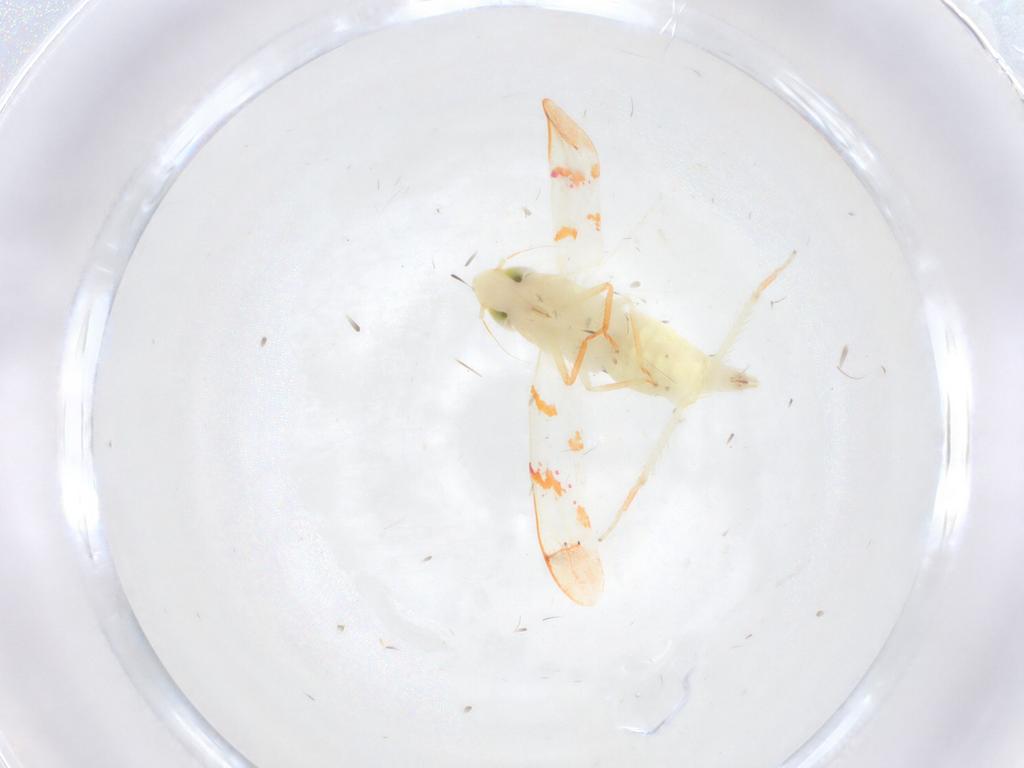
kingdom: Animalia
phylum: Arthropoda
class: Insecta
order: Hemiptera
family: Cicadellidae
